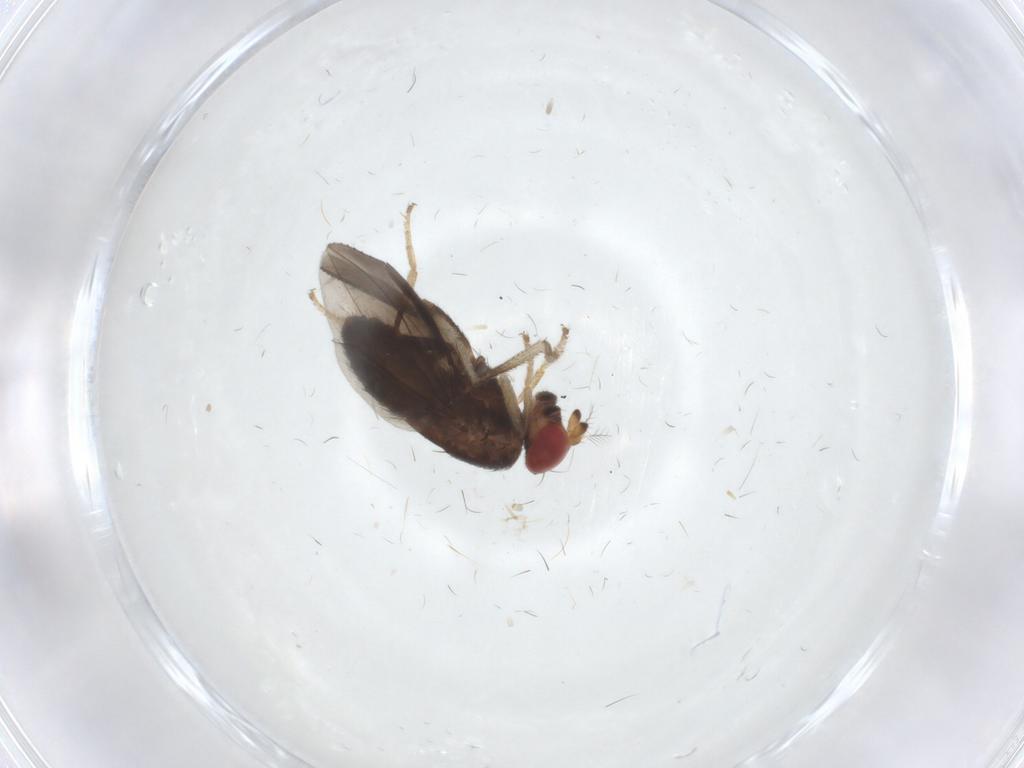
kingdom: Animalia
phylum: Arthropoda
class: Insecta
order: Diptera
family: Drosophilidae
